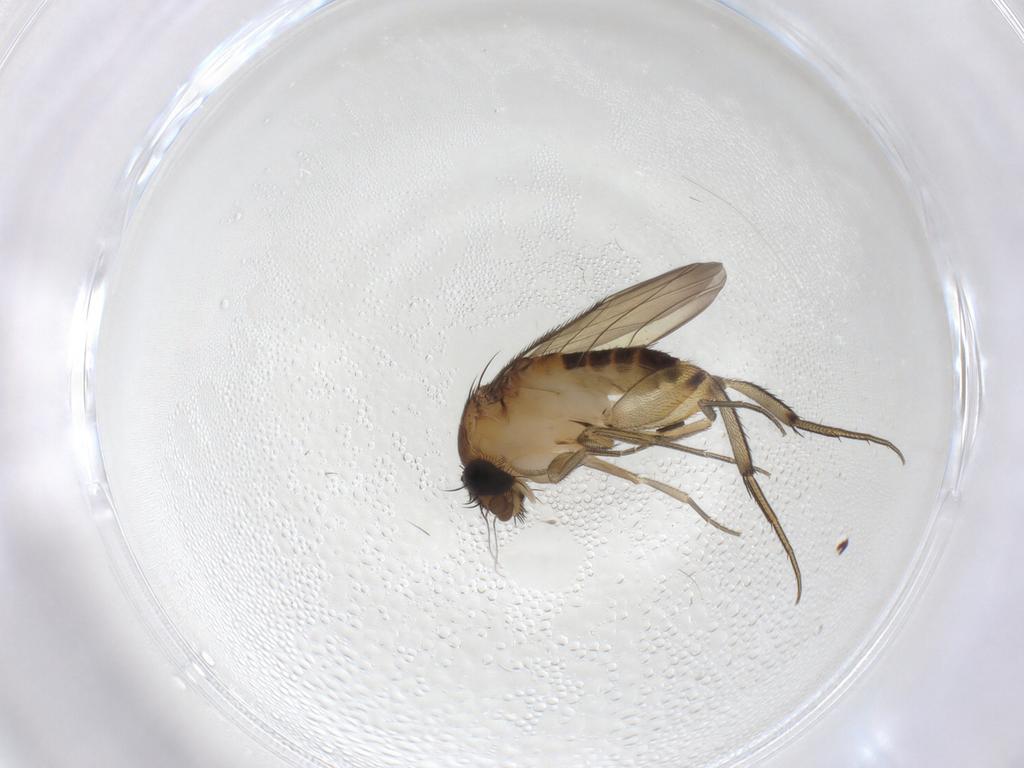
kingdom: Animalia
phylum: Arthropoda
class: Insecta
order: Diptera
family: Phoridae
